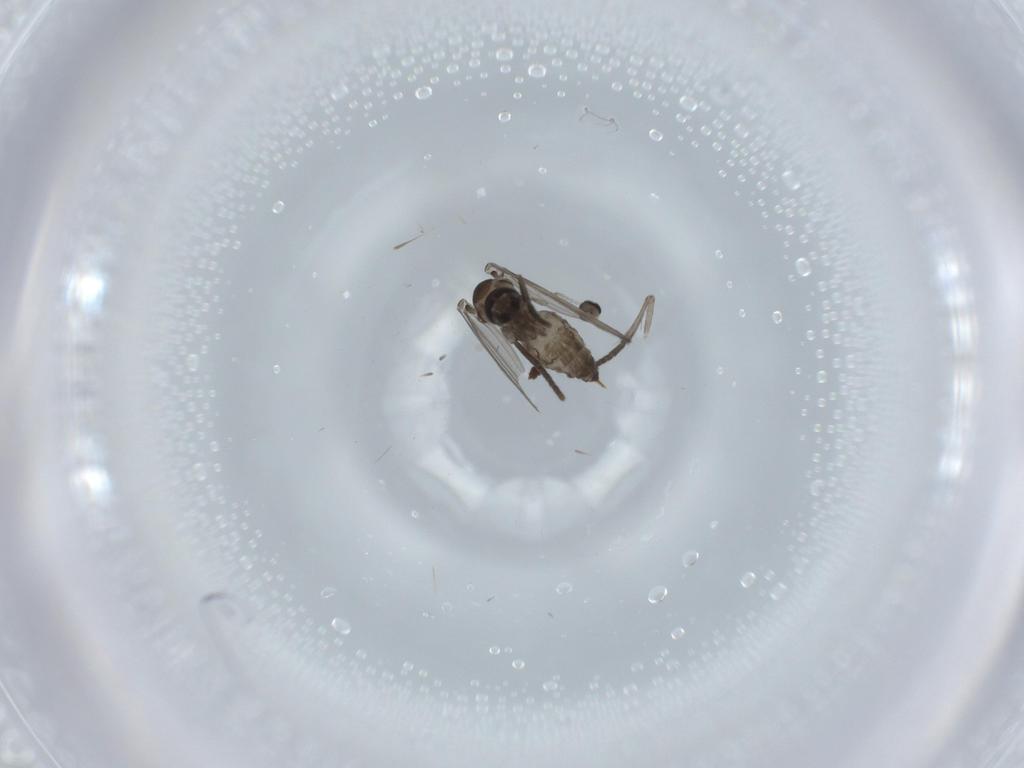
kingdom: Animalia
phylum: Arthropoda
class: Insecta
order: Diptera
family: Psychodidae
